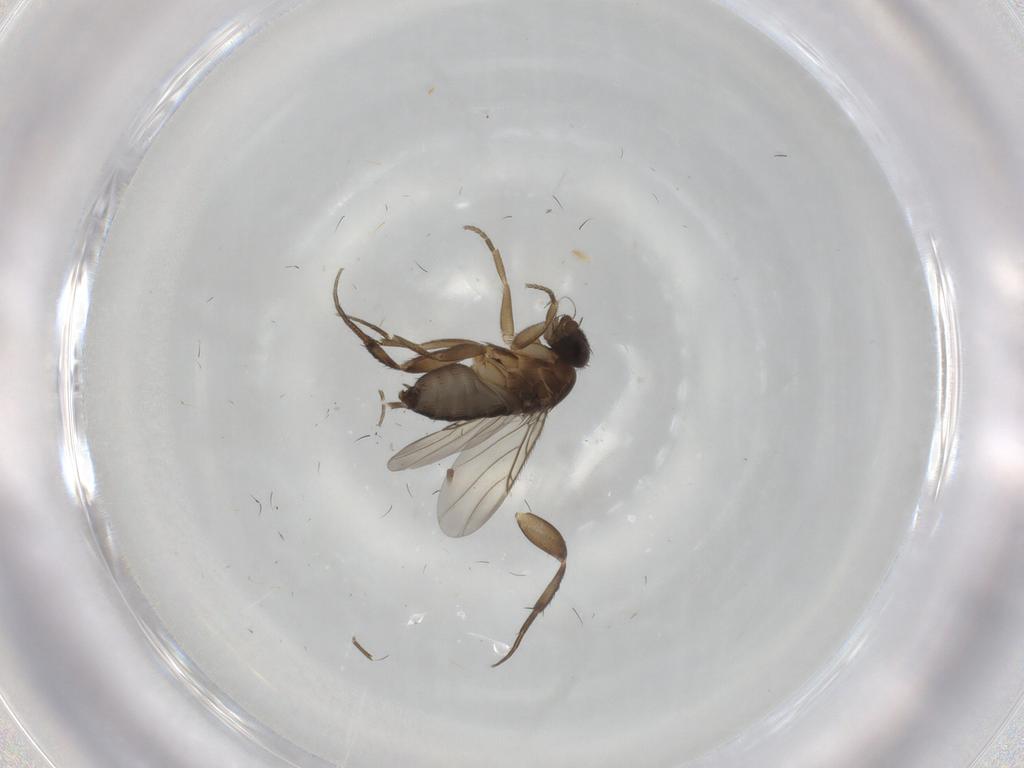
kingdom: Animalia
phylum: Arthropoda
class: Insecta
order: Diptera
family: Phoridae
